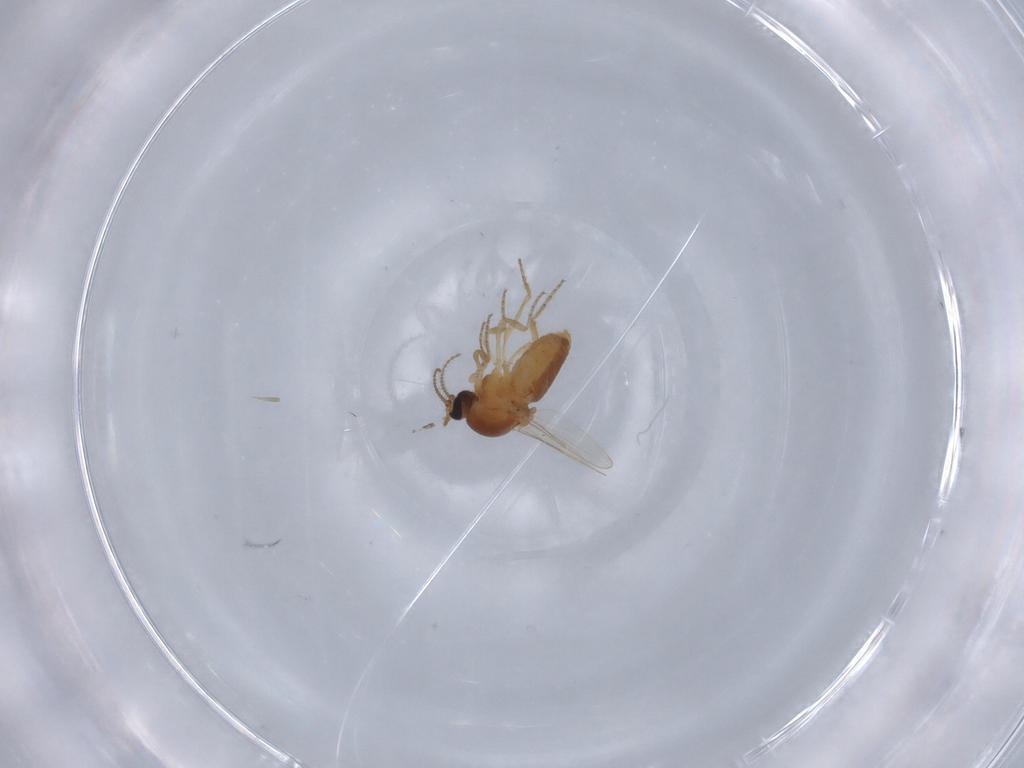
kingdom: Animalia
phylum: Arthropoda
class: Insecta
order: Diptera
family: Ceratopogonidae
